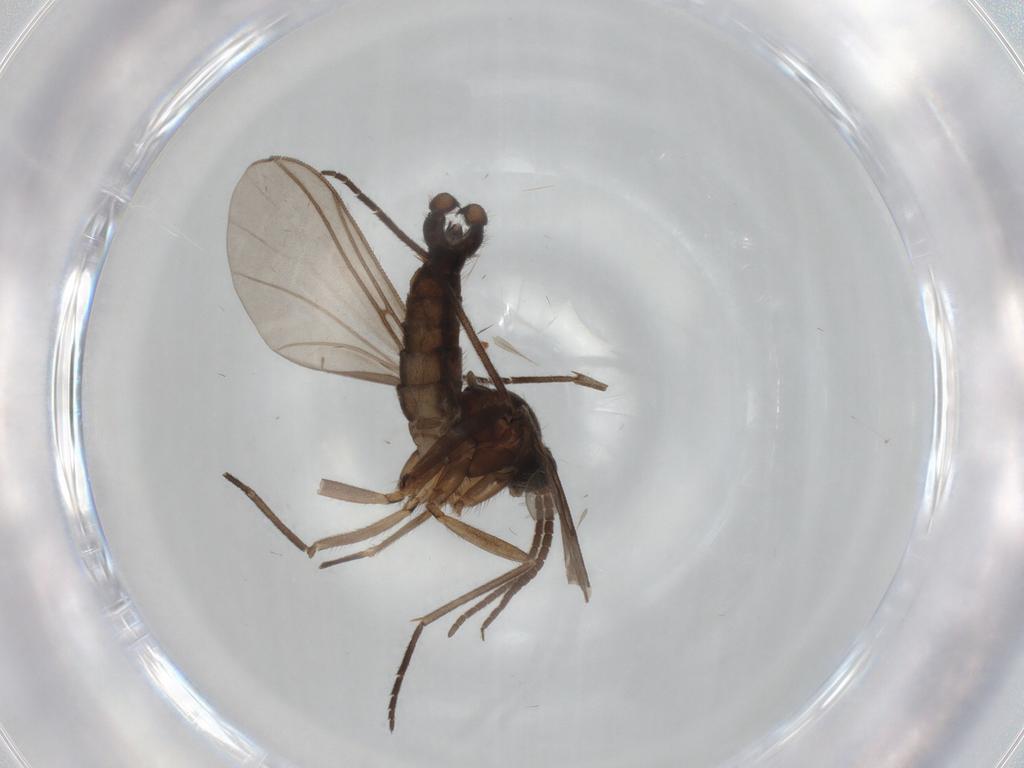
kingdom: Animalia
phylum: Arthropoda
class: Insecta
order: Diptera
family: Sciaridae
